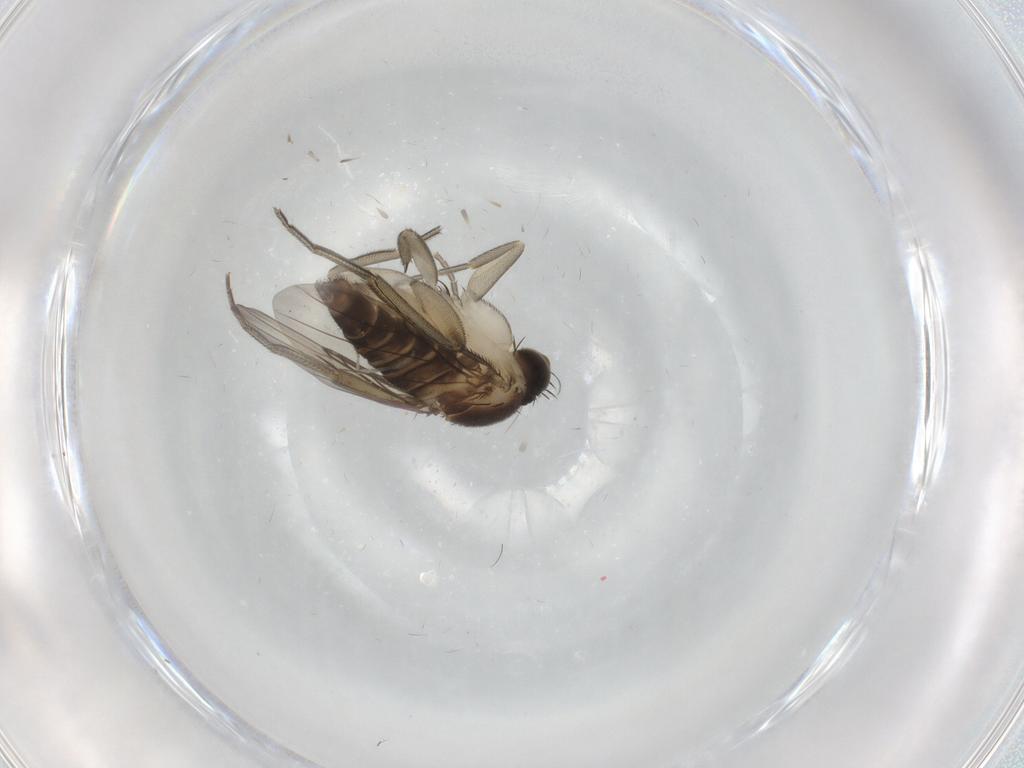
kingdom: Animalia
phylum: Arthropoda
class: Insecta
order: Diptera
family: Phoridae
